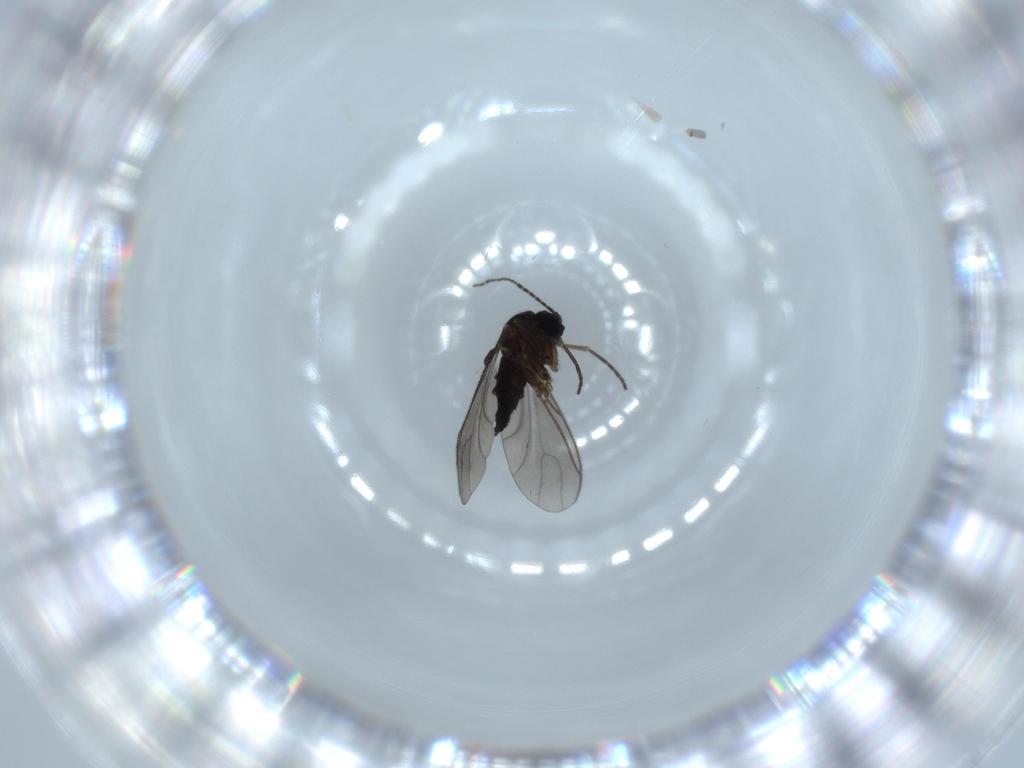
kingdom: Animalia
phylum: Arthropoda
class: Insecta
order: Diptera
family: Sciaridae
